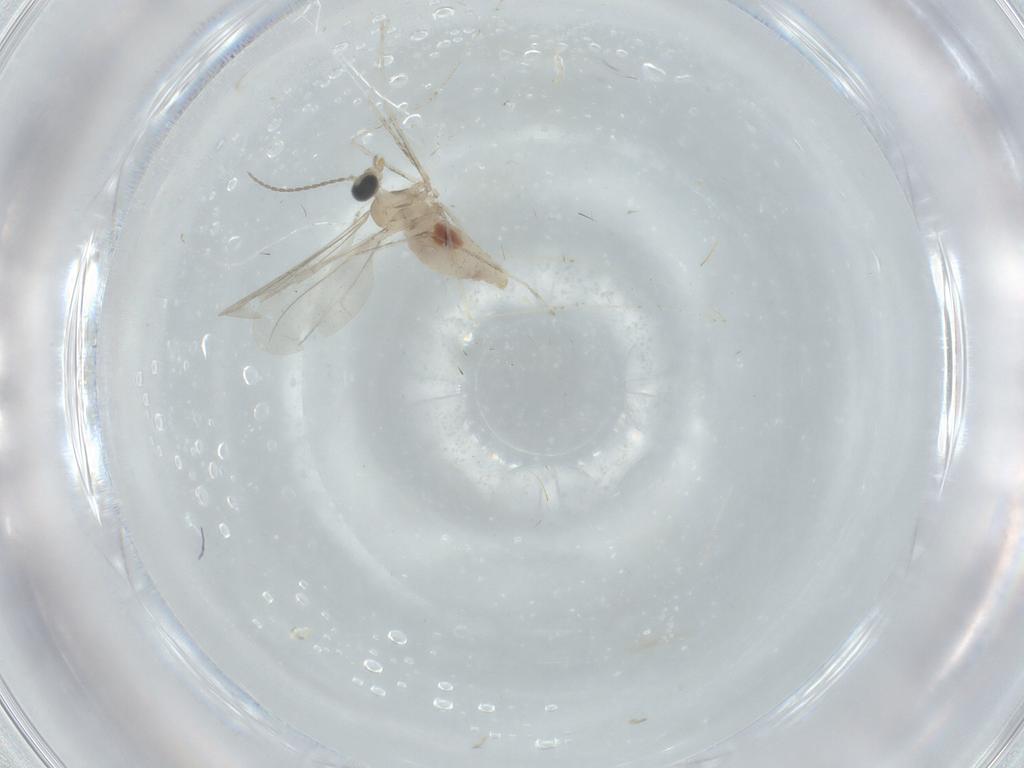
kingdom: Animalia
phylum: Arthropoda
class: Insecta
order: Diptera
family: Cecidomyiidae
